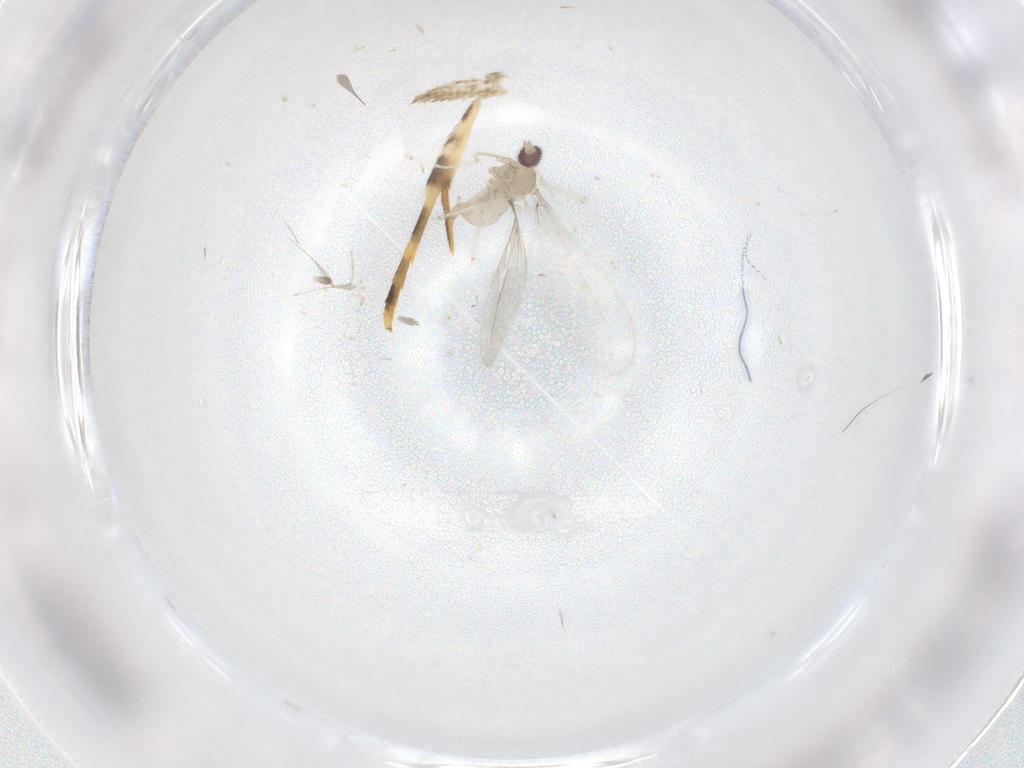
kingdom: Animalia
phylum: Arthropoda
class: Insecta
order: Diptera
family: Cecidomyiidae
